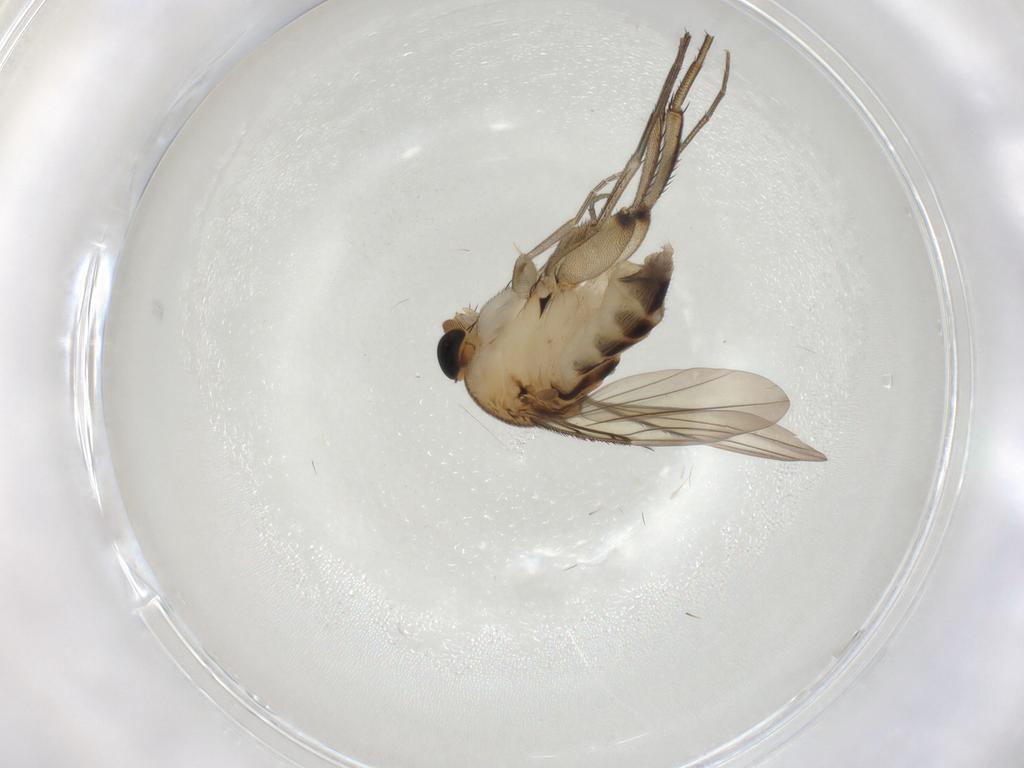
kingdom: Animalia
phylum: Arthropoda
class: Insecta
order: Diptera
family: Phoridae
